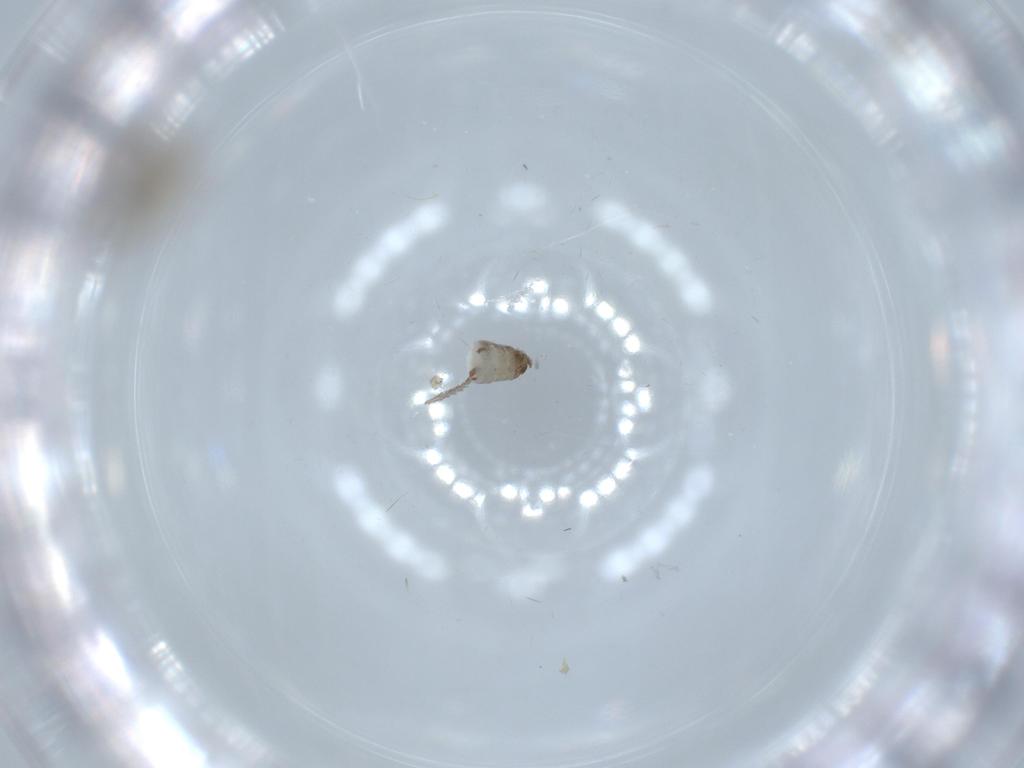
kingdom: Animalia
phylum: Arthropoda
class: Insecta
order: Diptera
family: Psychodidae
